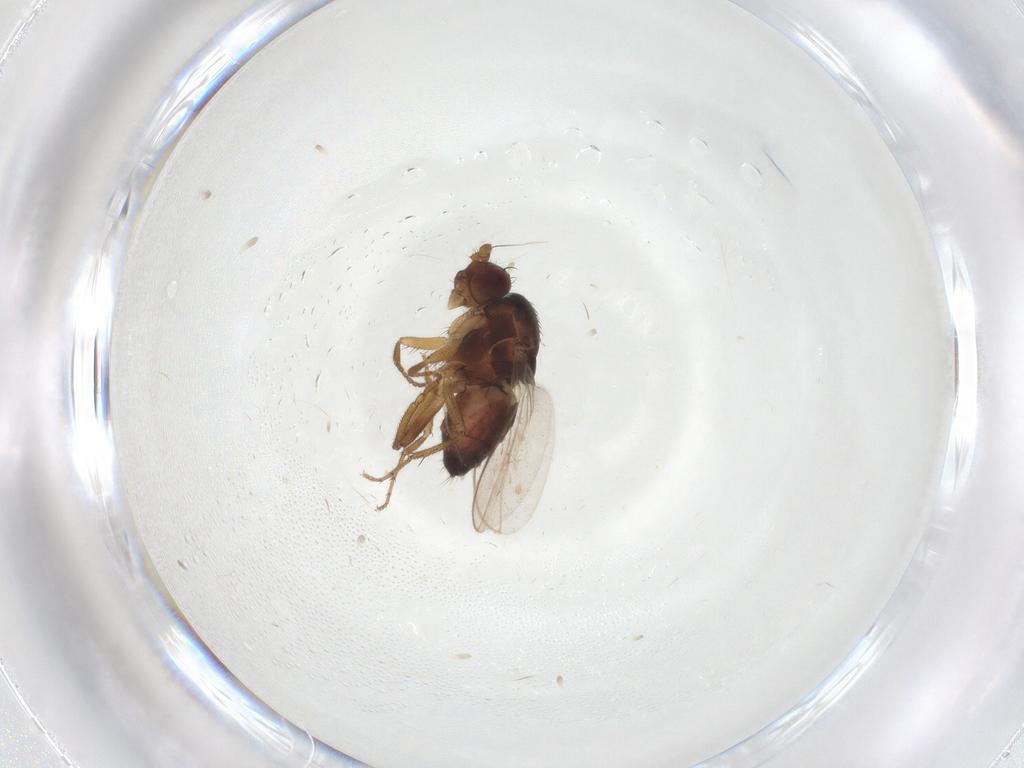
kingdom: Animalia
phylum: Arthropoda
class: Insecta
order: Diptera
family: Sphaeroceridae
